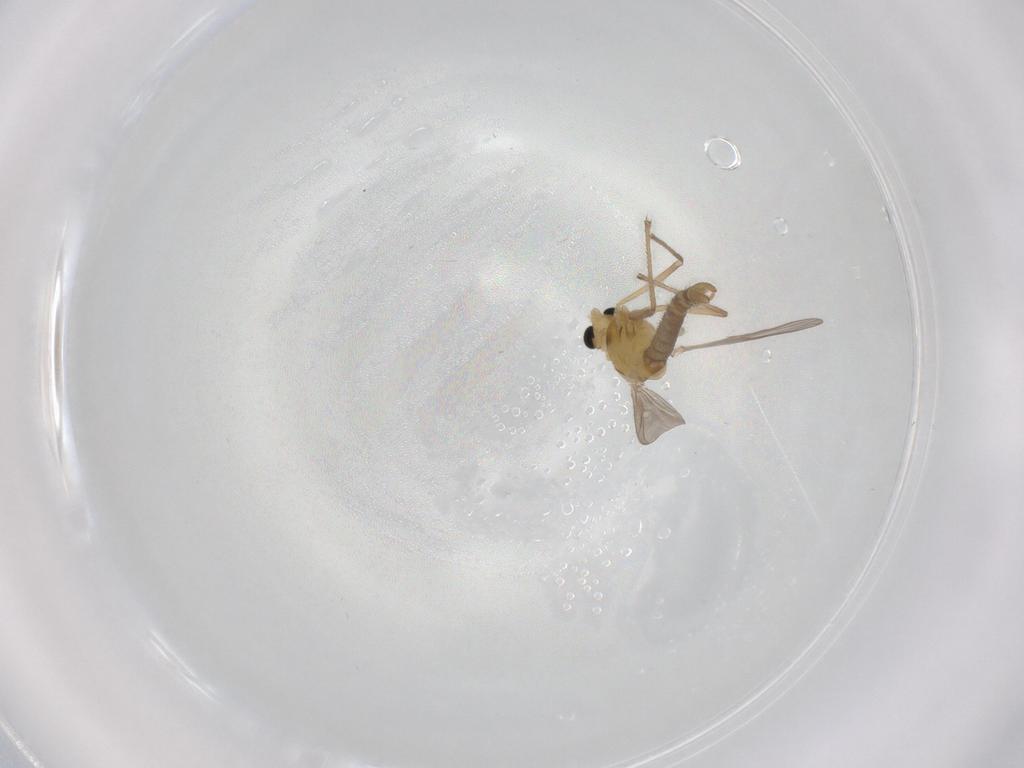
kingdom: Animalia
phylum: Arthropoda
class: Insecta
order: Diptera
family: Chironomidae
